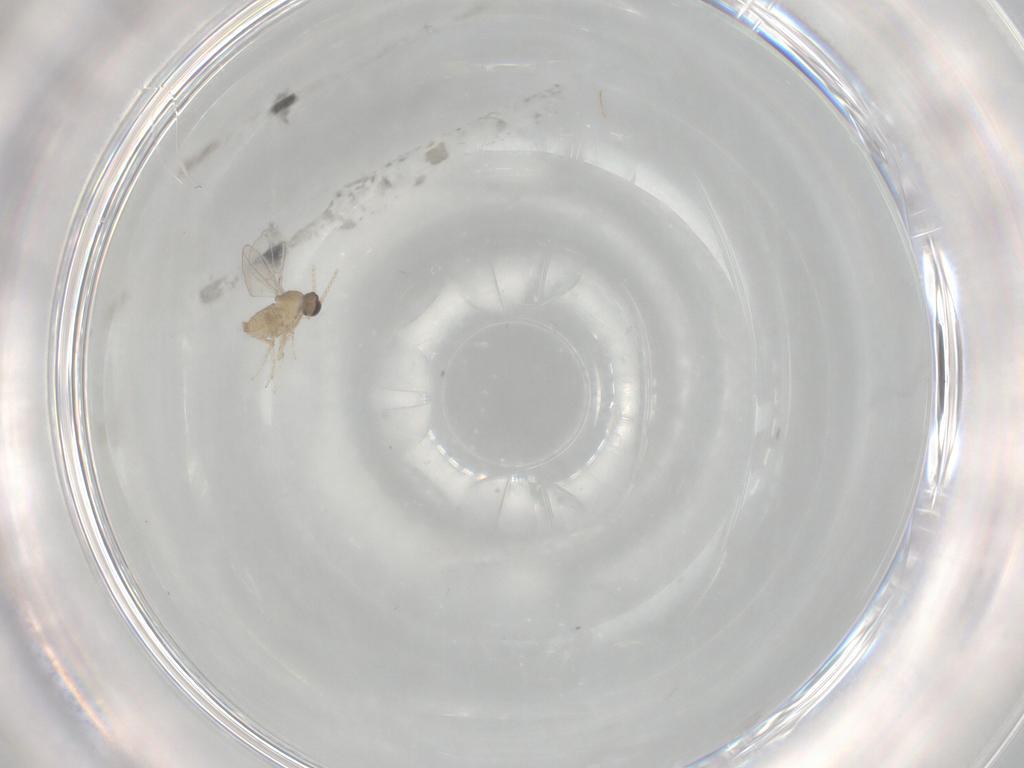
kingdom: Animalia
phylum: Arthropoda
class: Insecta
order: Diptera
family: Cecidomyiidae
